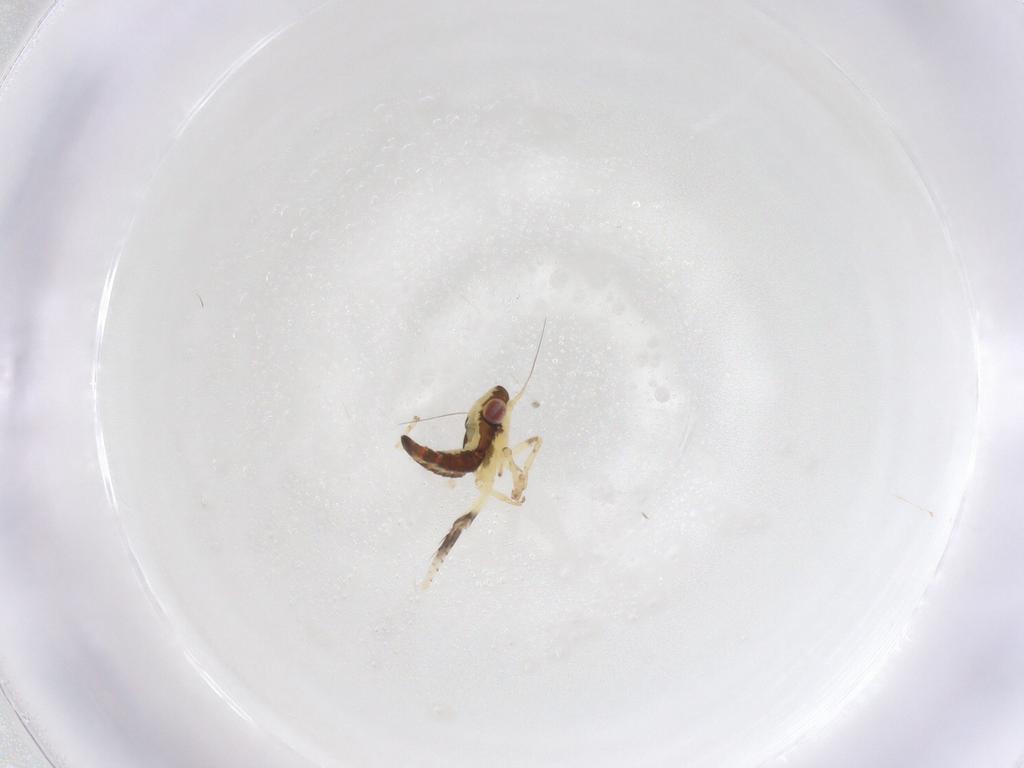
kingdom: Animalia
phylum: Arthropoda
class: Insecta
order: Hemiptera
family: Cicadellidae
